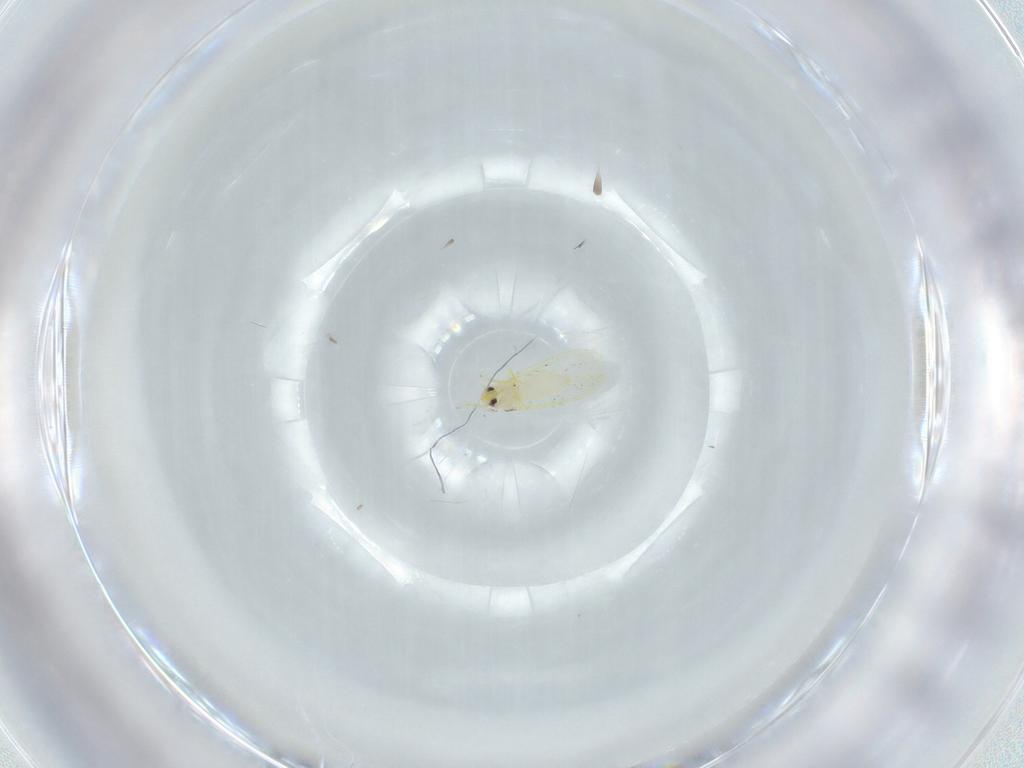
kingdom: Animalia
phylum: Arthropoda
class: Insecta
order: Hemiptera
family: Aleyrodidae
